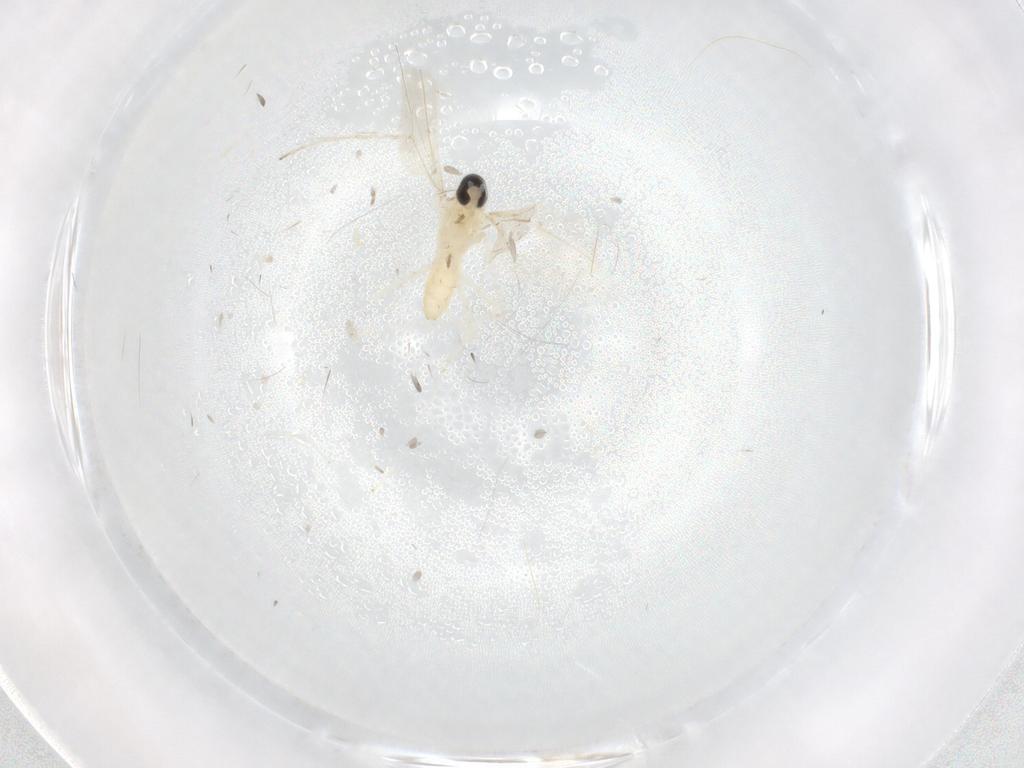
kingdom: Animalia
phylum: Arthropoda
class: Insecta
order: Diptera
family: Cecidomyiidae
